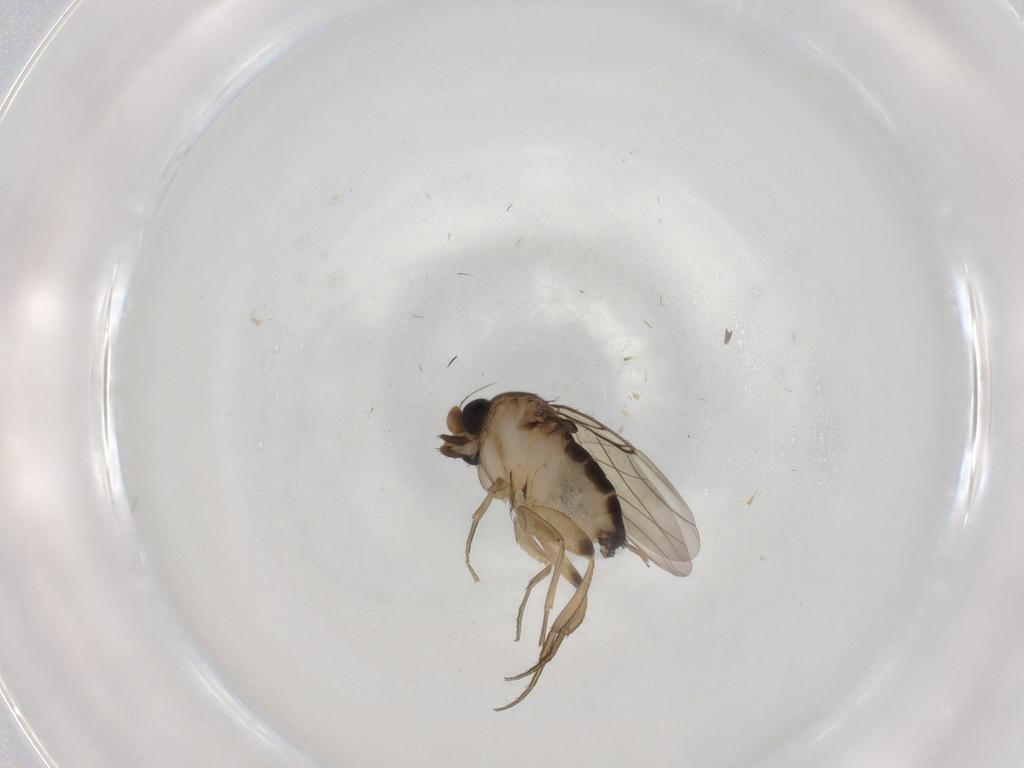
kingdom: Animalia
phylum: Arthropoda
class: Insecta
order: Diptera
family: Phoridae
